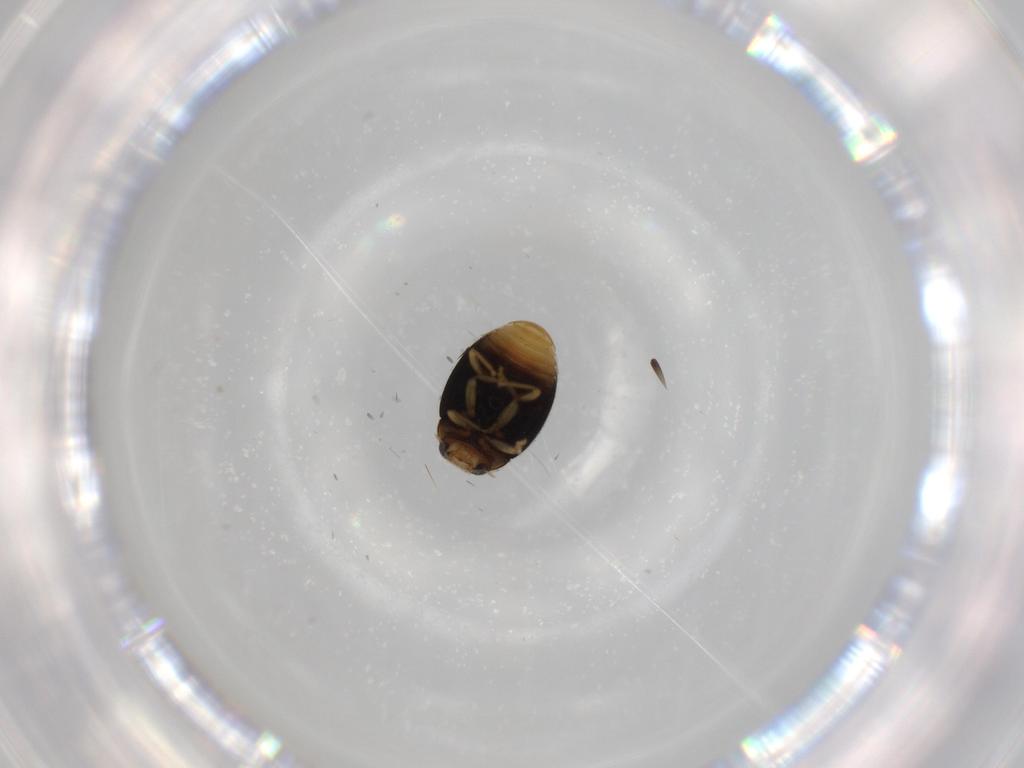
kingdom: Animalia
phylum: Arthropoda
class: Insecta
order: Coleoptera
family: Coccinellidae
